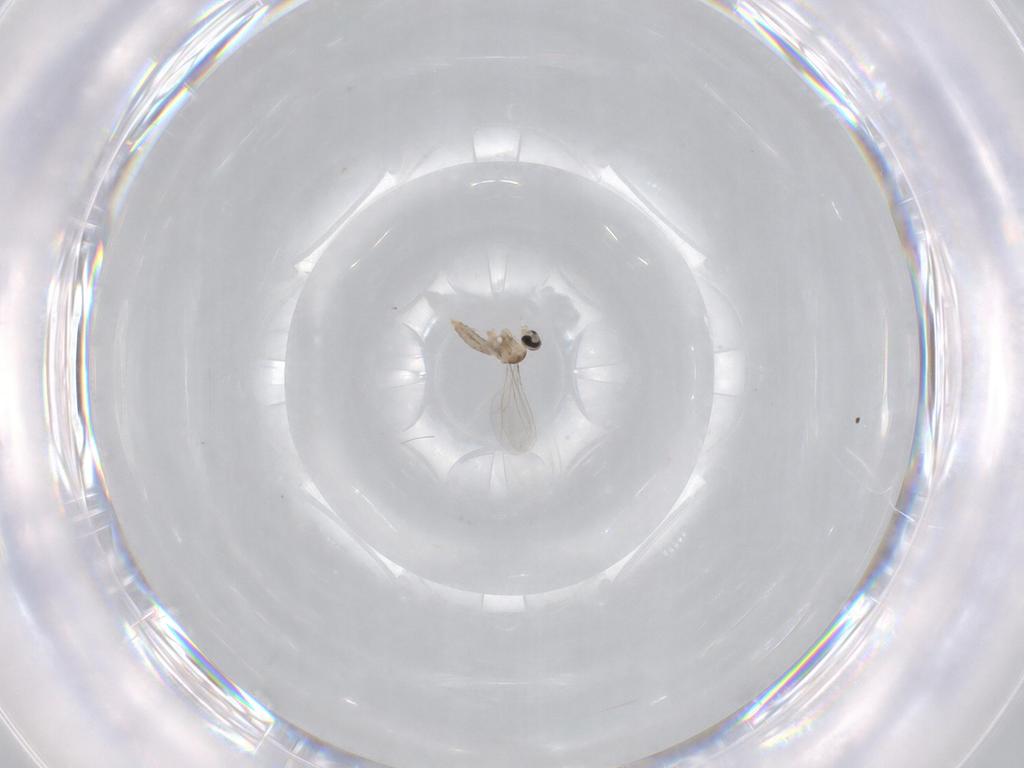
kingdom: Animalia
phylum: Arthropoda
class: Insecta
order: Diptera
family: Cecidomyiidae
